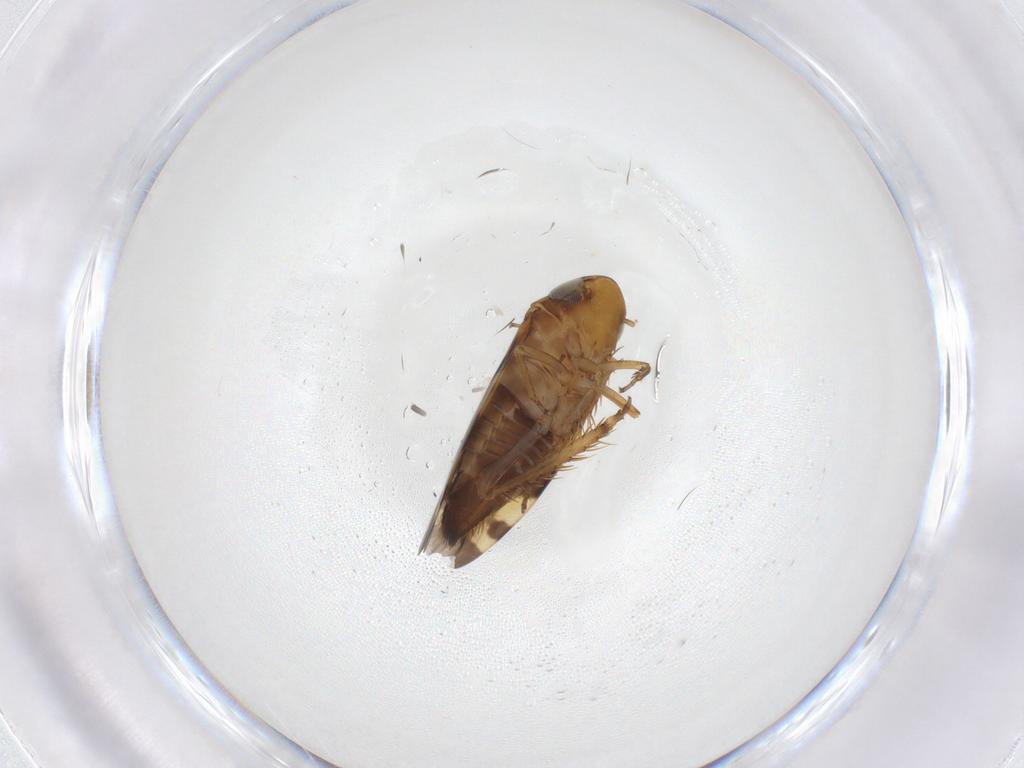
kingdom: Animalia
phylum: Arthropoda
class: Insecta
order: Hemiptera
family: Cicadellidae
